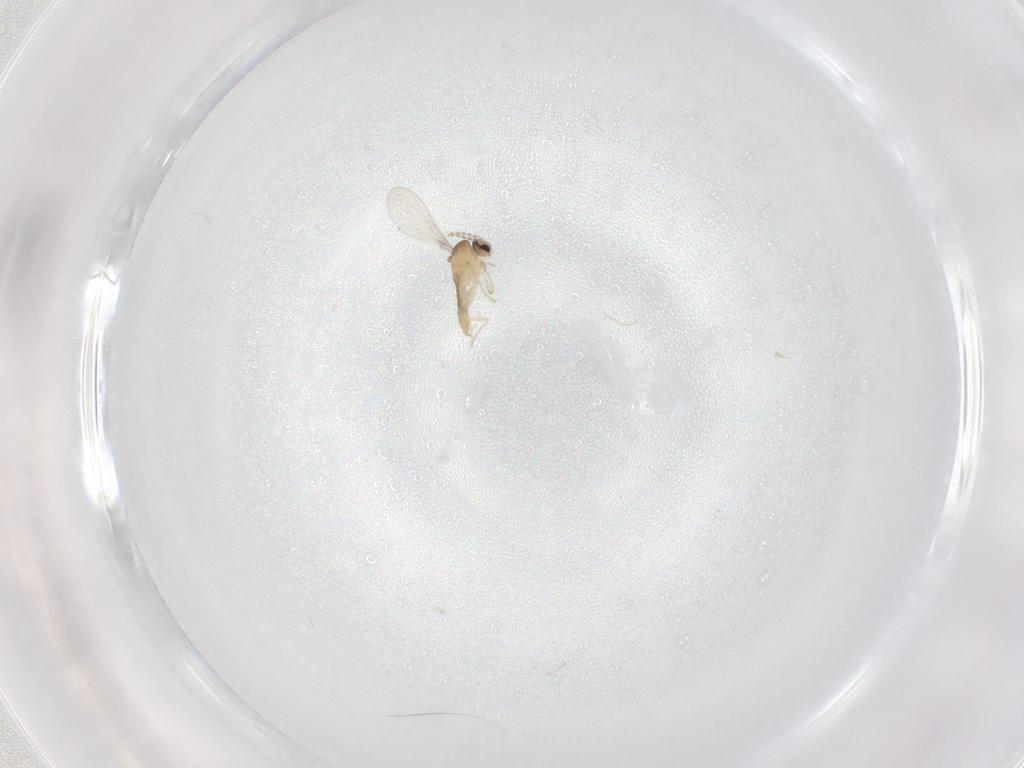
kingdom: Animalia
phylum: Arthropoda
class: Insecta
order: Diptera
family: Cecidomyiidae
